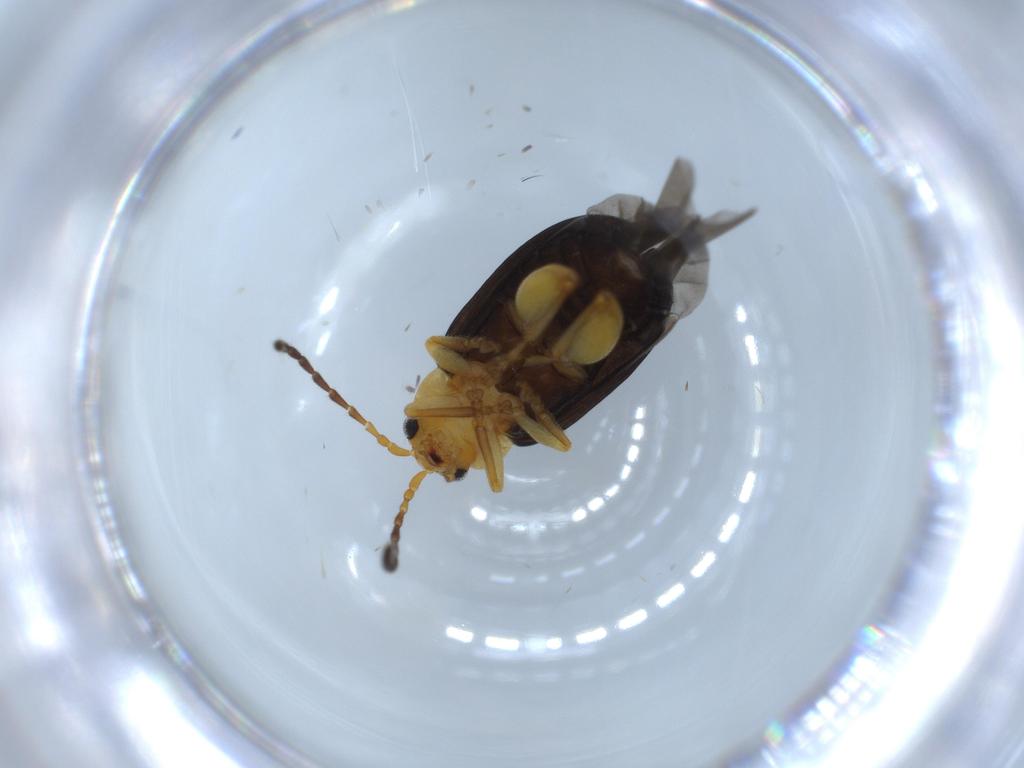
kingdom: Animalia
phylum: Arthropoda
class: Insecta
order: Coleoptera
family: Chrysomelidae
